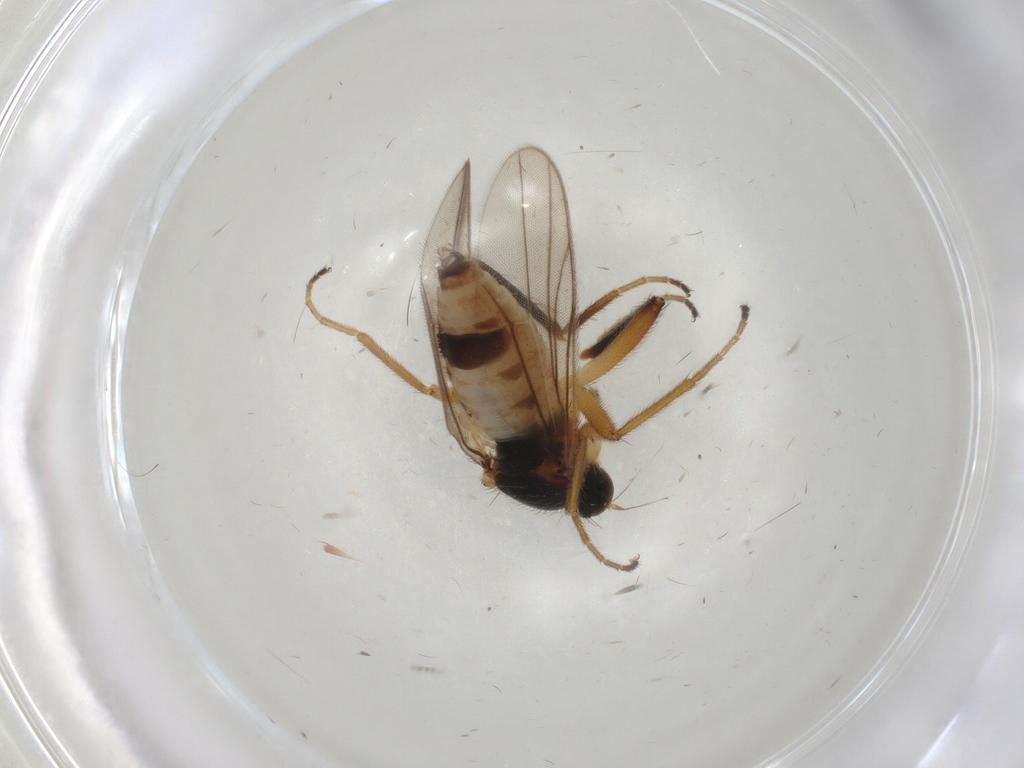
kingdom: Animalia
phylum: Arthropoda
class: Insecta
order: Diptera
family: Hybotidae
